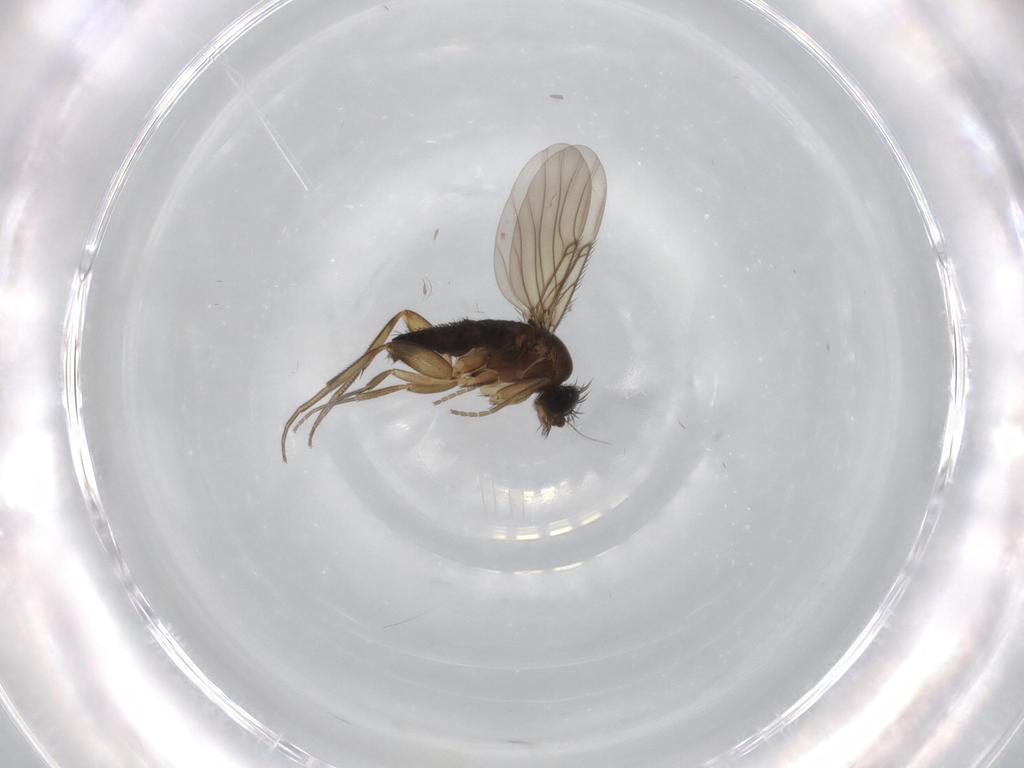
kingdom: Animalia
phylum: Arthropoda
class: Insecta
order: Diptera
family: Phoridae
